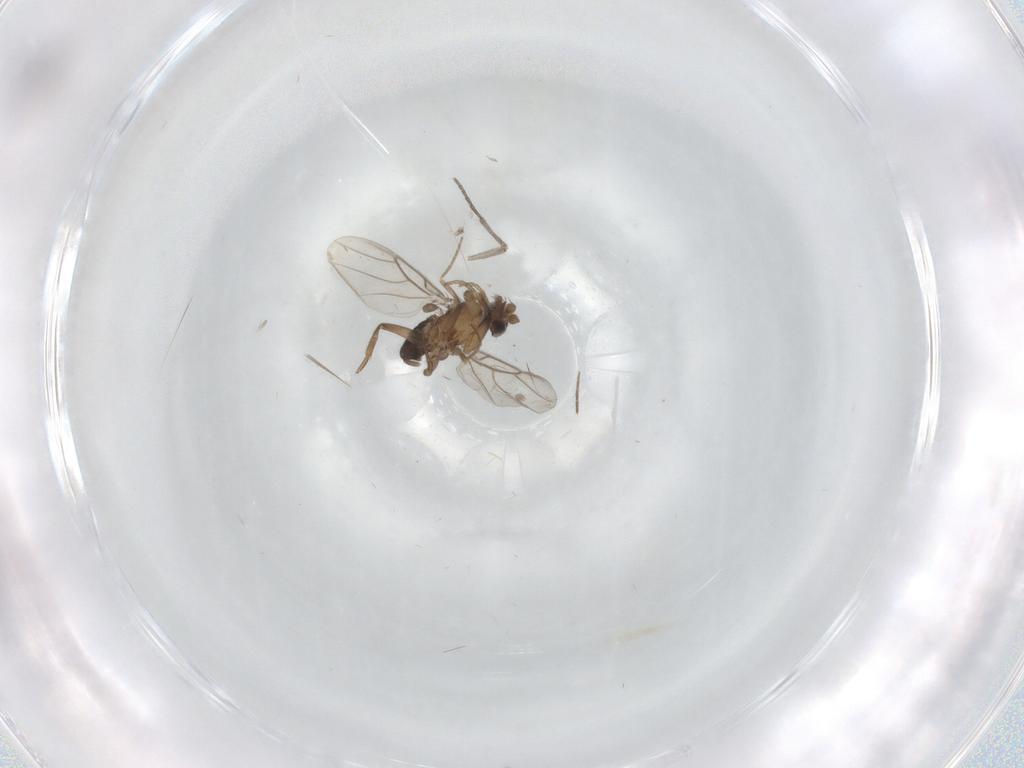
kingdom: Animalia
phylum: Arthropoda
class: Insecta
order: Diptera
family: Sciaridae
